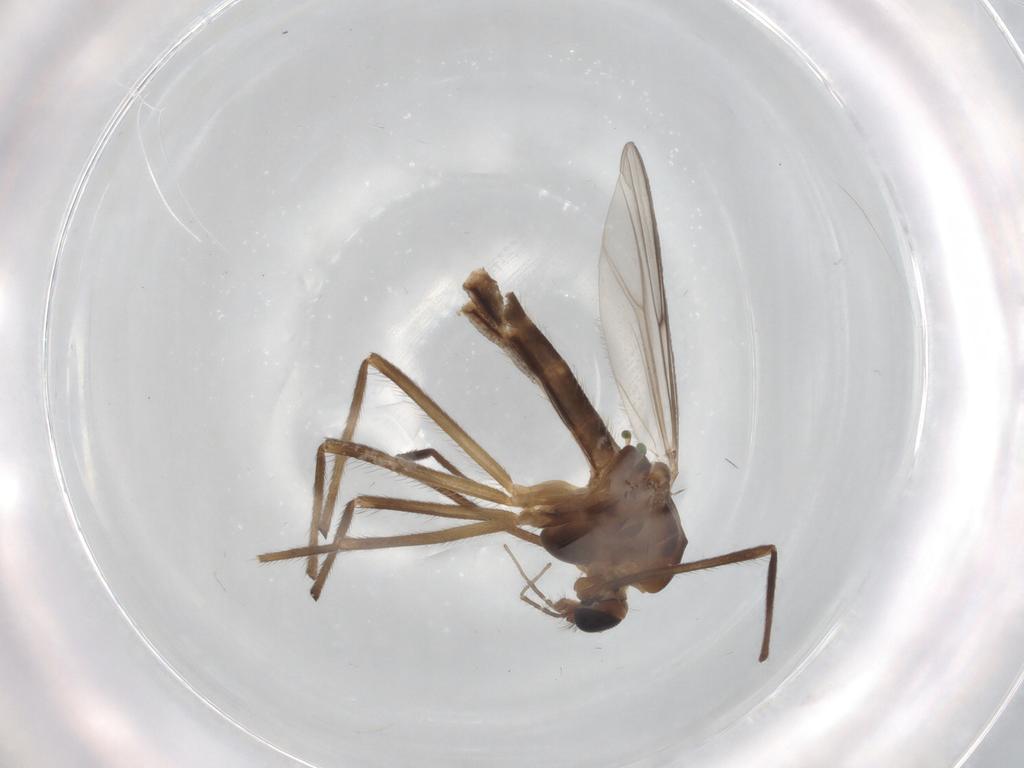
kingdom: Animalia
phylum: Arthropoda
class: Insecta
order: Diptera
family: Chironomidae
